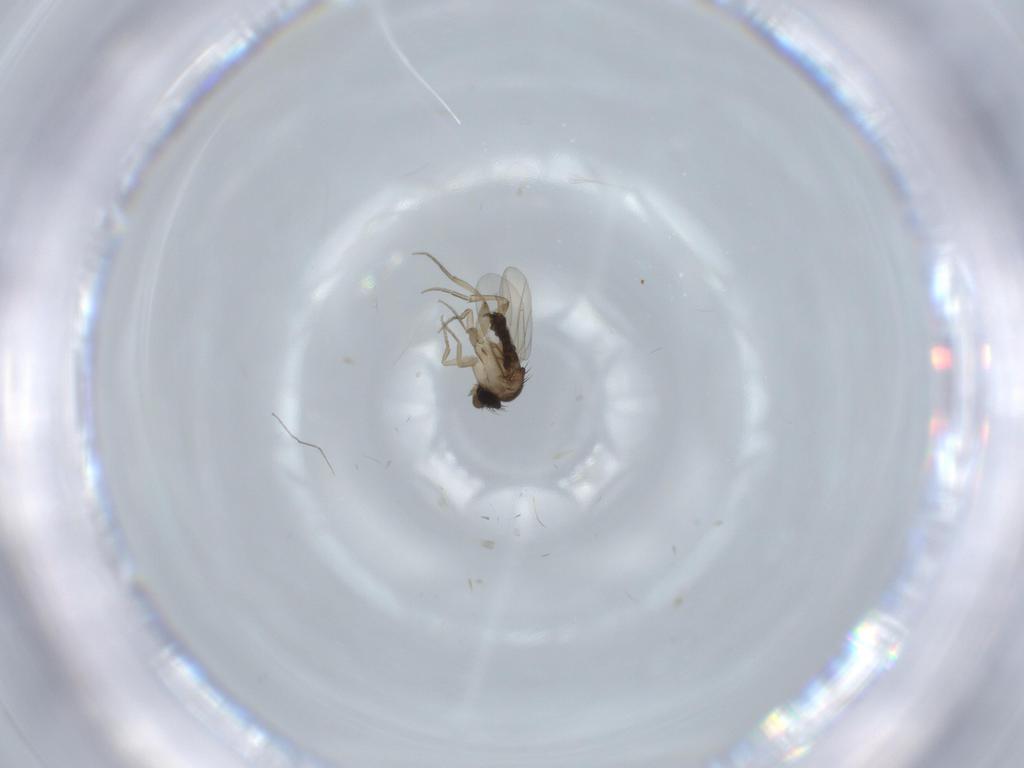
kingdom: Animalia
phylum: Arthropoda
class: Insecta
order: Diptera
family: Phoridae
